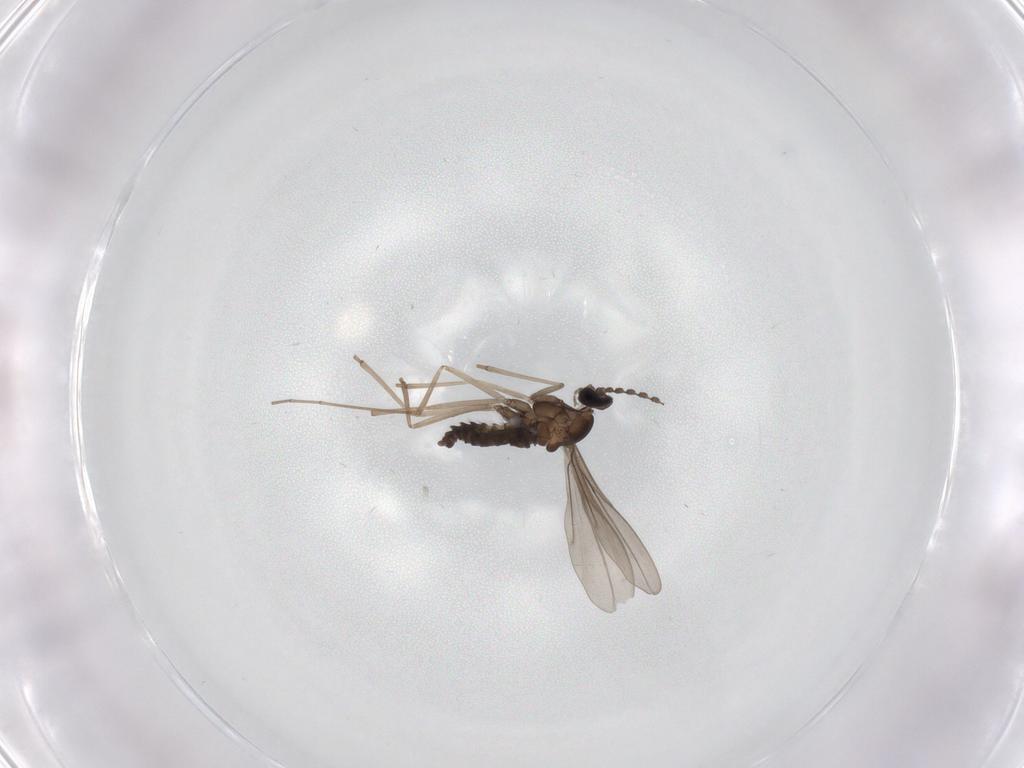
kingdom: Animalia
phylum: Arthropoda
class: Insecta
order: Diptera
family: Cecidomyiidae
